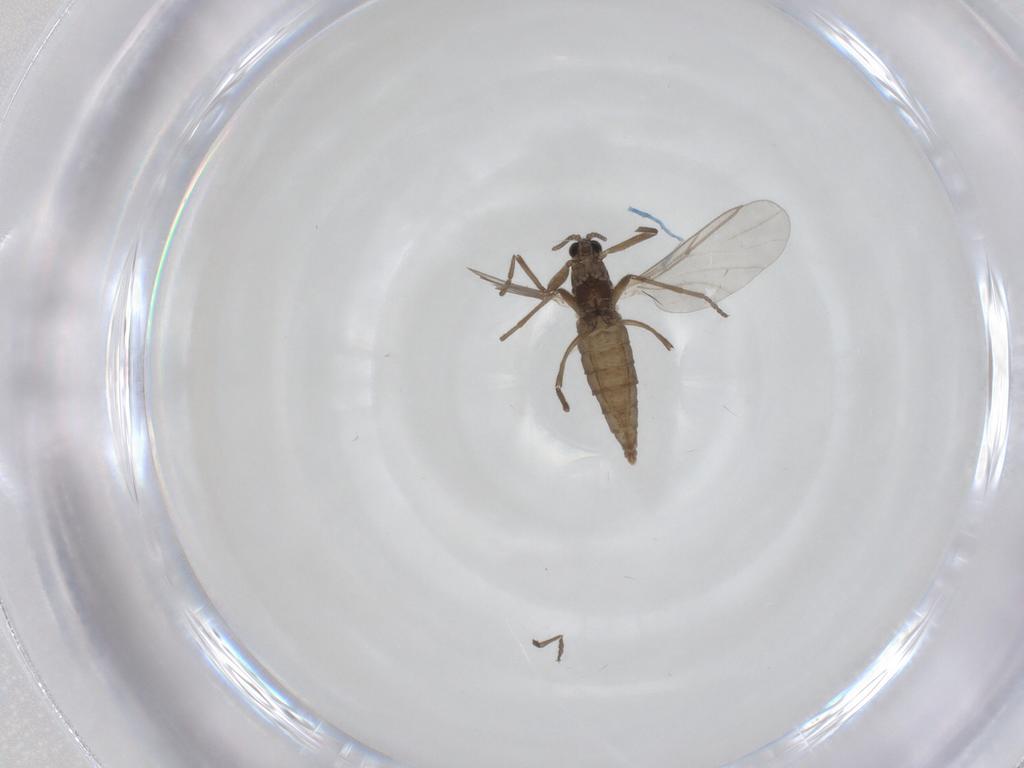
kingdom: Animalia
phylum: Arthropoda
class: Insecta
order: Diptera
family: Cecidomyiidae
